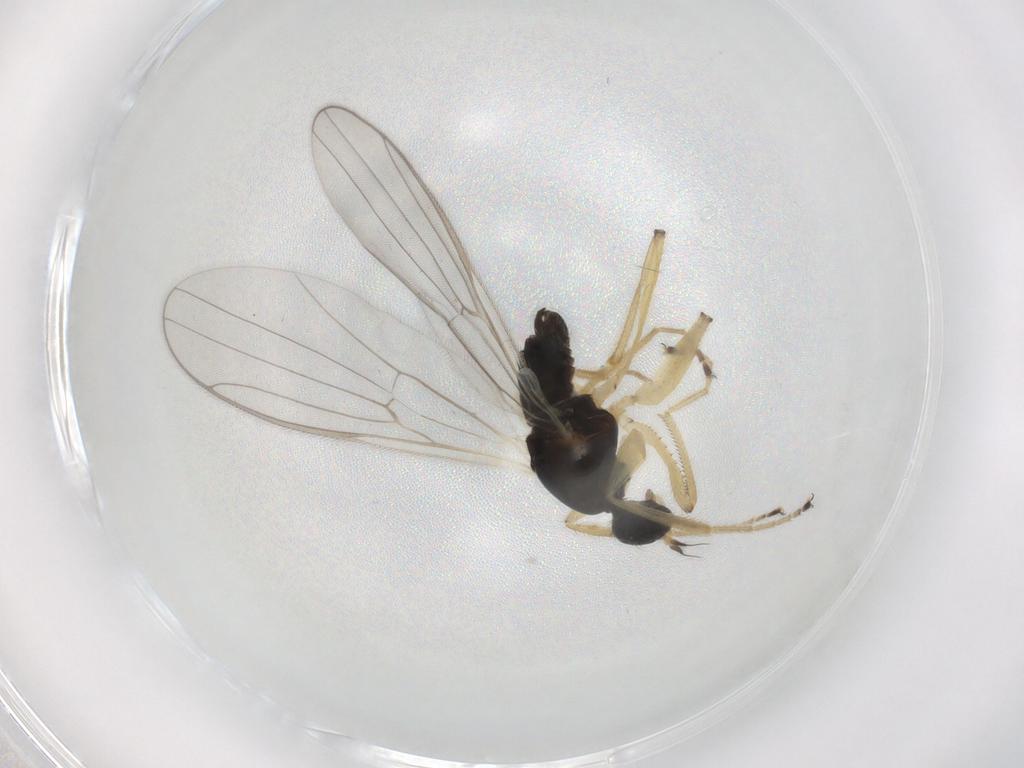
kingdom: Animalia
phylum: Arthropoda
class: Insecta
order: Diptera
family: Hybotidae
